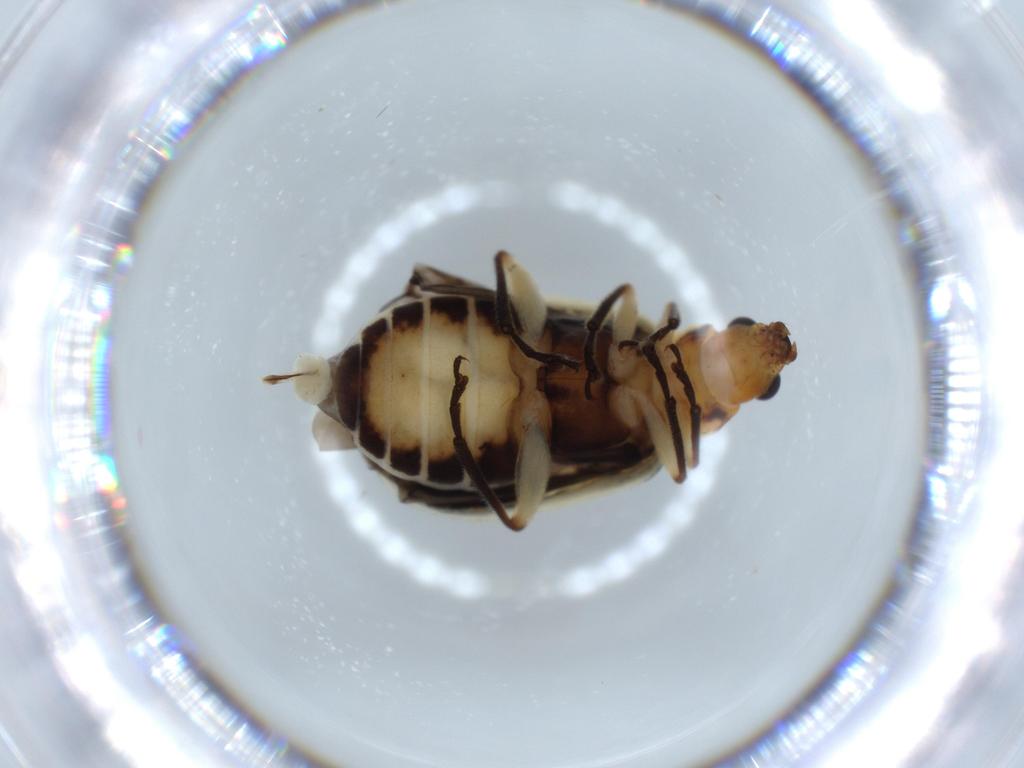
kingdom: Animalia
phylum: Arthropoda
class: Insecta
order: Coleoptera
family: Chrysomelidae
